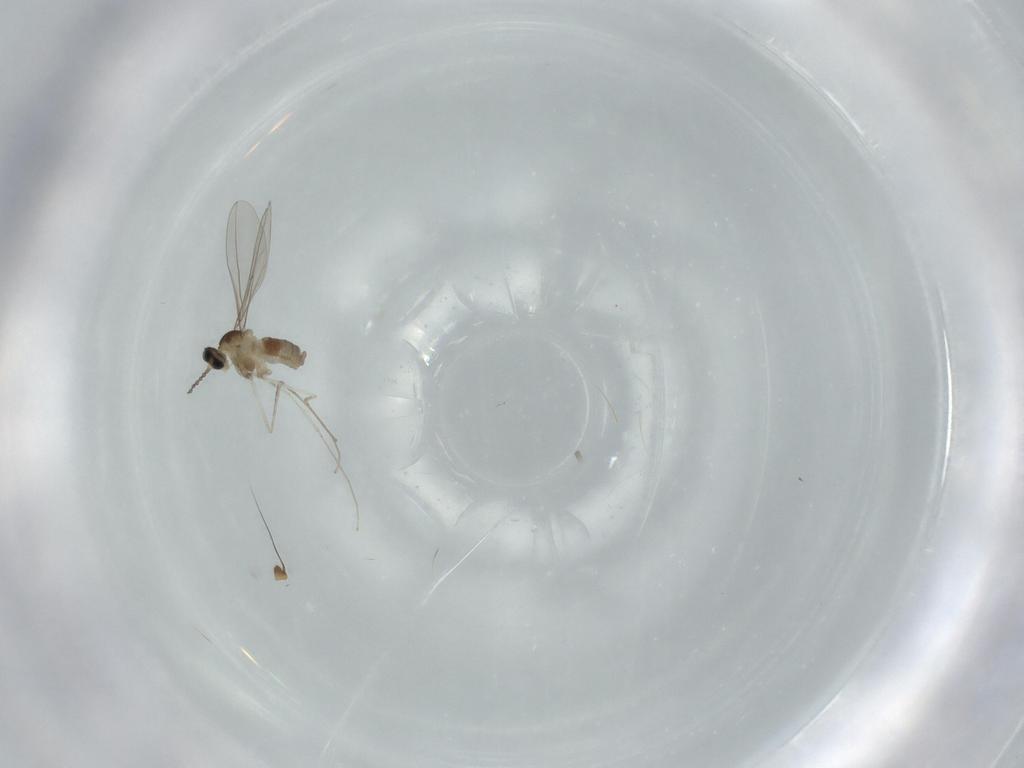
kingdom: Animalia
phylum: Arthropoda
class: Insecta
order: Diptera
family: Cecidomyiidae
